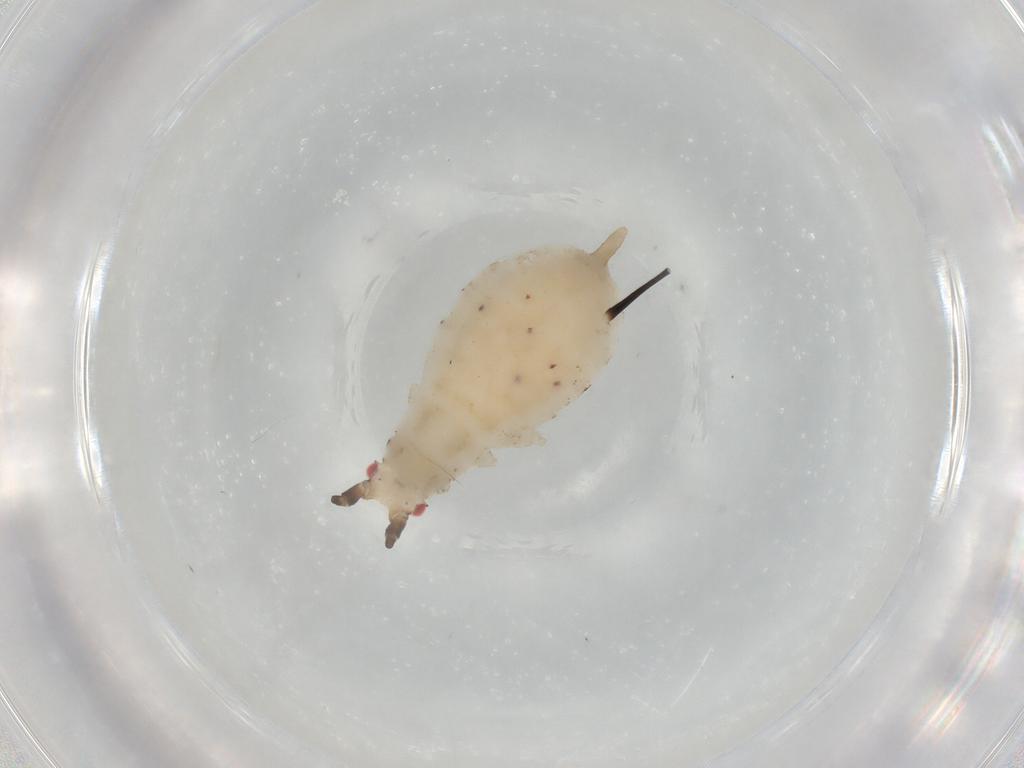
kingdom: Animalia
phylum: Arthropoda
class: Insecta
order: Hemiptera
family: Aphididae
